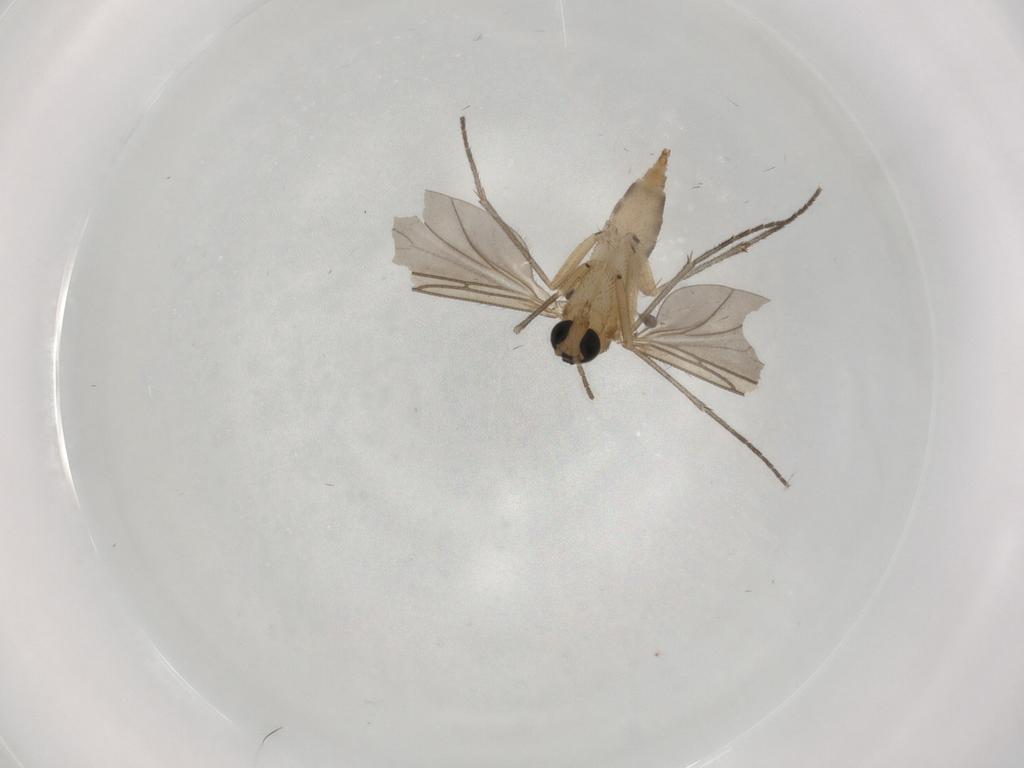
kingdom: Animalia
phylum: Arthropoda
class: Insecta
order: Diptera
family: Sciaridae
